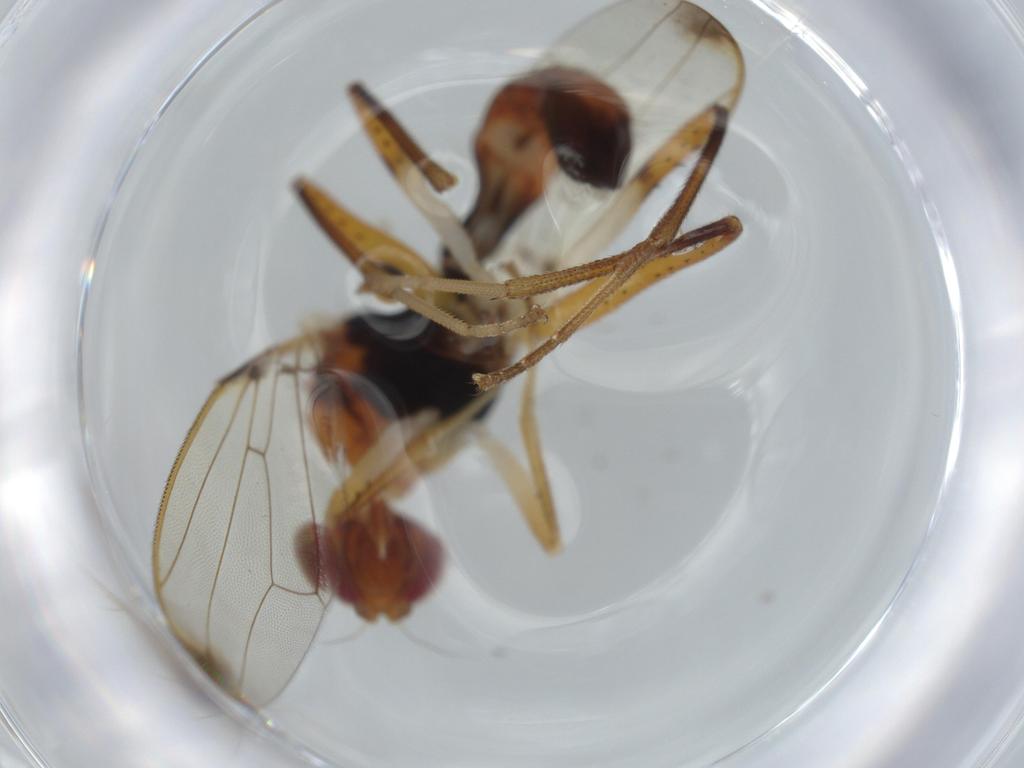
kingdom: Animalia
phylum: Arthropoda
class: Insecta
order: Diptera
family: Richardiidae
